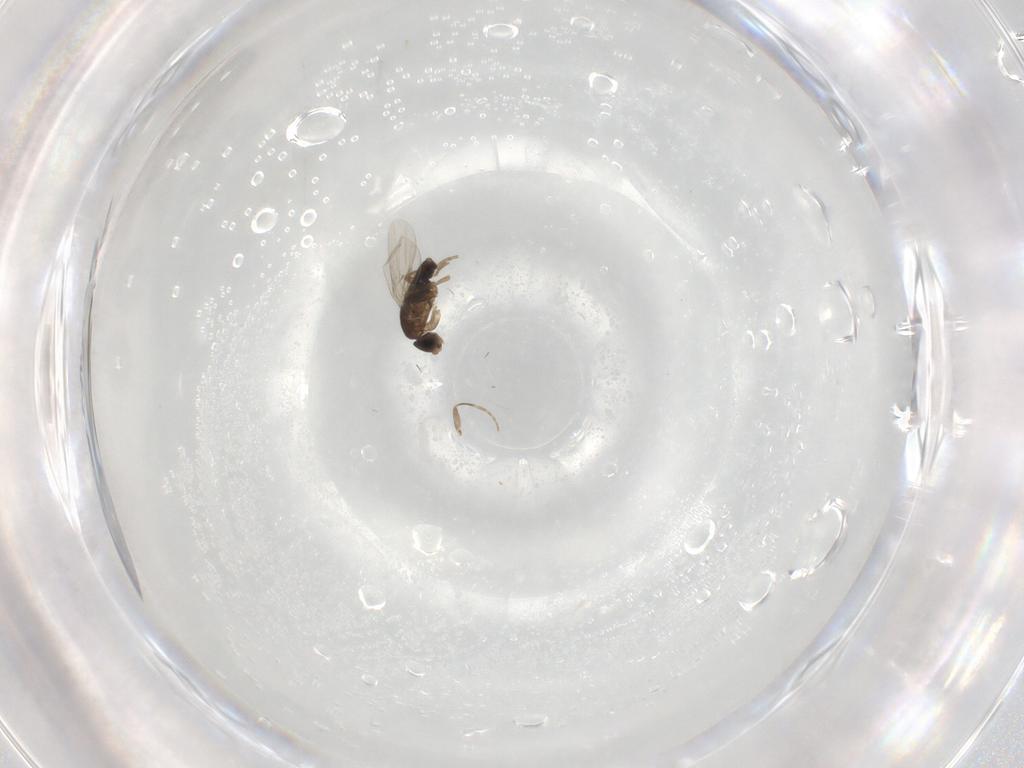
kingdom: Animalia
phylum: Arthropoda
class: Insecta
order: Diptera
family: Phoridae
